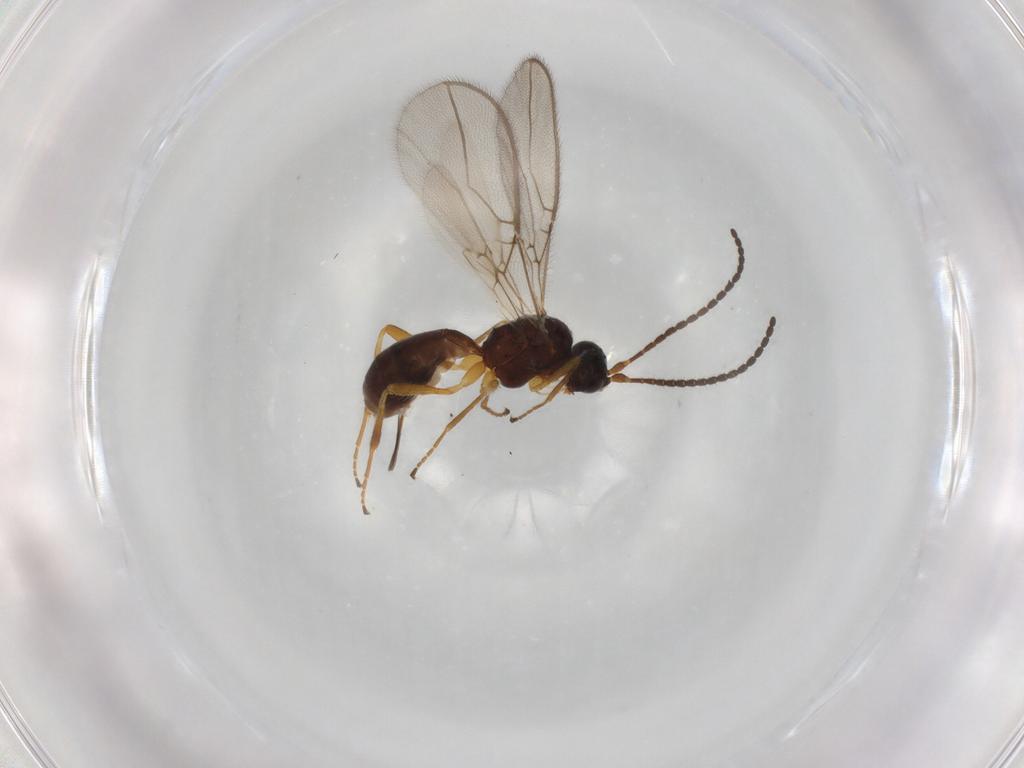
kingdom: Animalia
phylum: Arthropoda
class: Insecta
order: Hymenoptera
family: Braconidae
